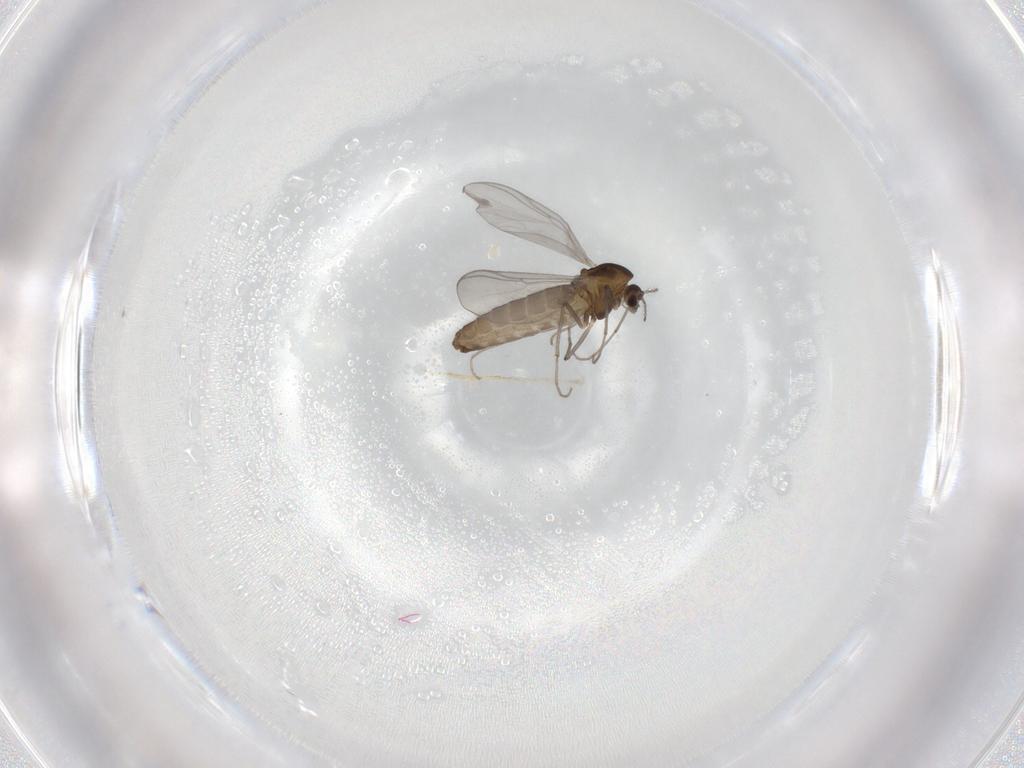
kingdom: Animalia
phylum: Arthropoda
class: Insecta
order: Diptera
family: Chironomidae
